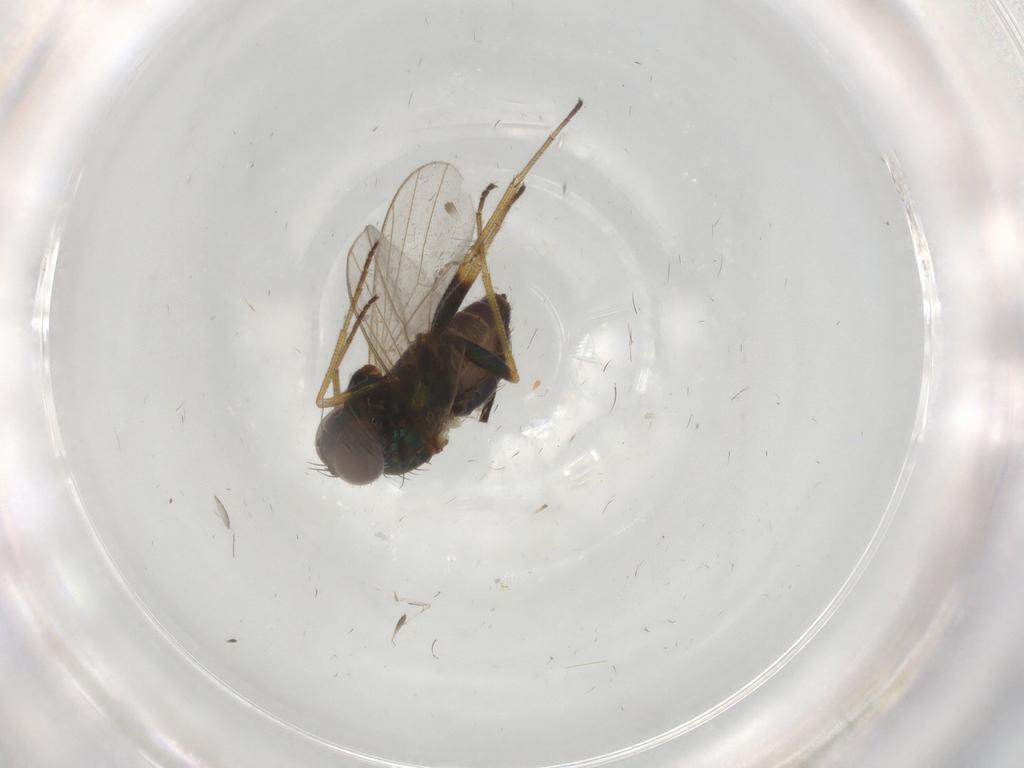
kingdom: Animalia
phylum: Arthropoda
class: Insecta
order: Diptera
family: Dolichopodidae
